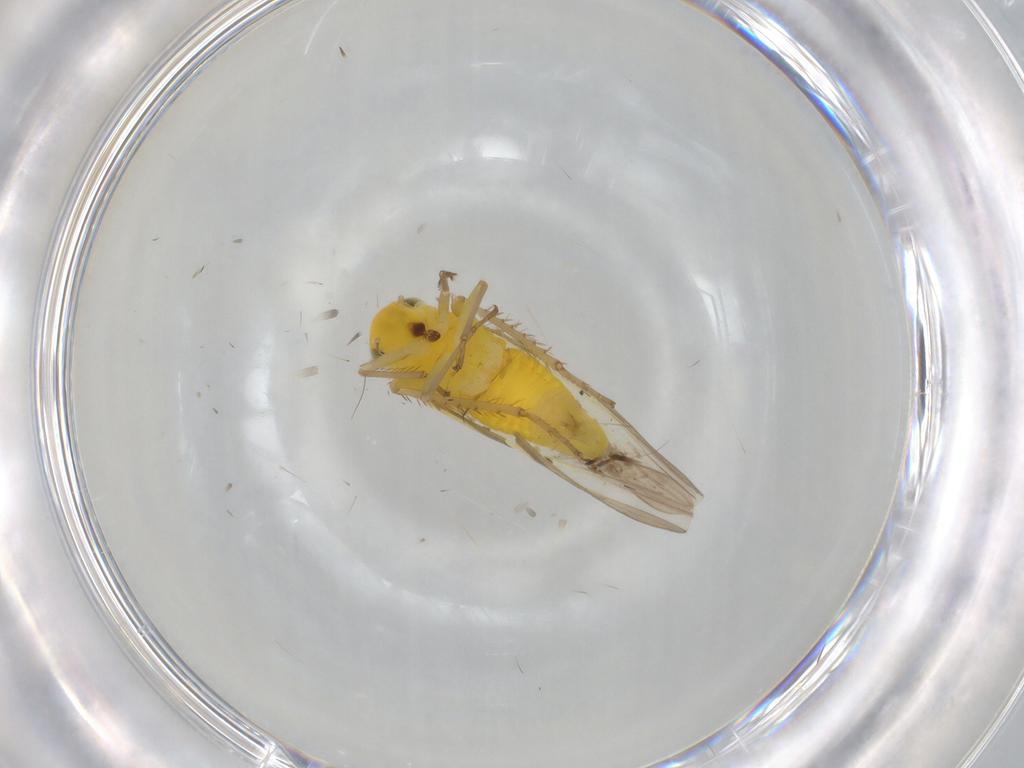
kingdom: Animalia
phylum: Arthropoda
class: Insecta
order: Hemiptera
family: Cicadellidae
